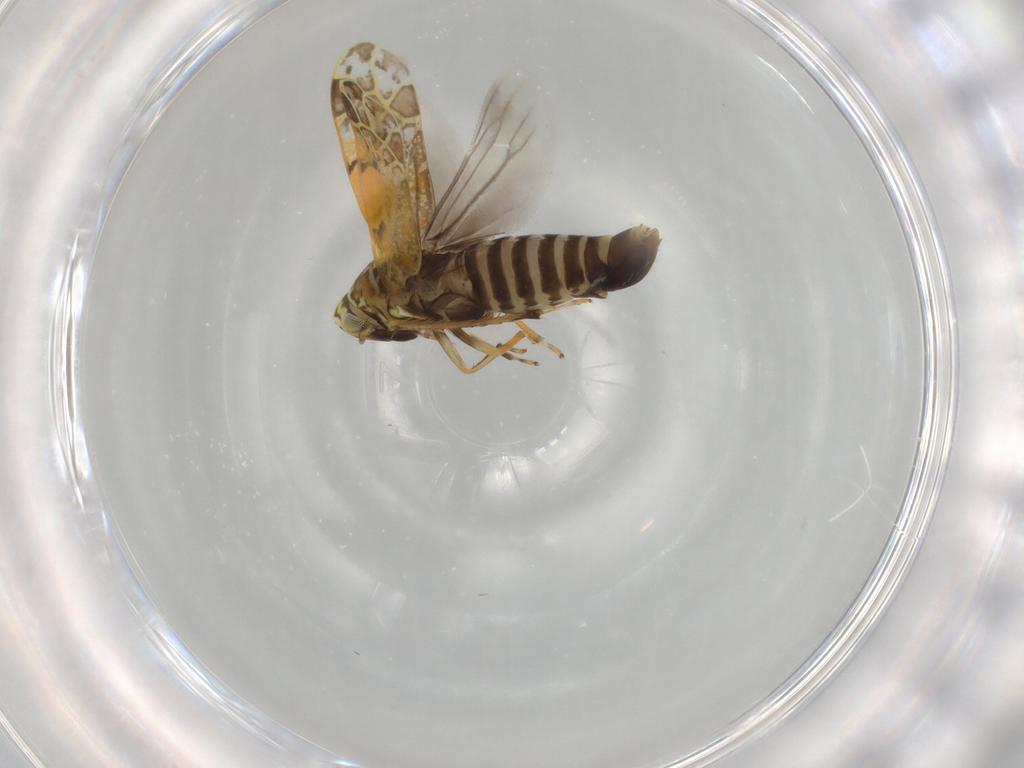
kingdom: Animalia
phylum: Arthropoda
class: Insecta
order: Hemiptera
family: Cicadellidae
